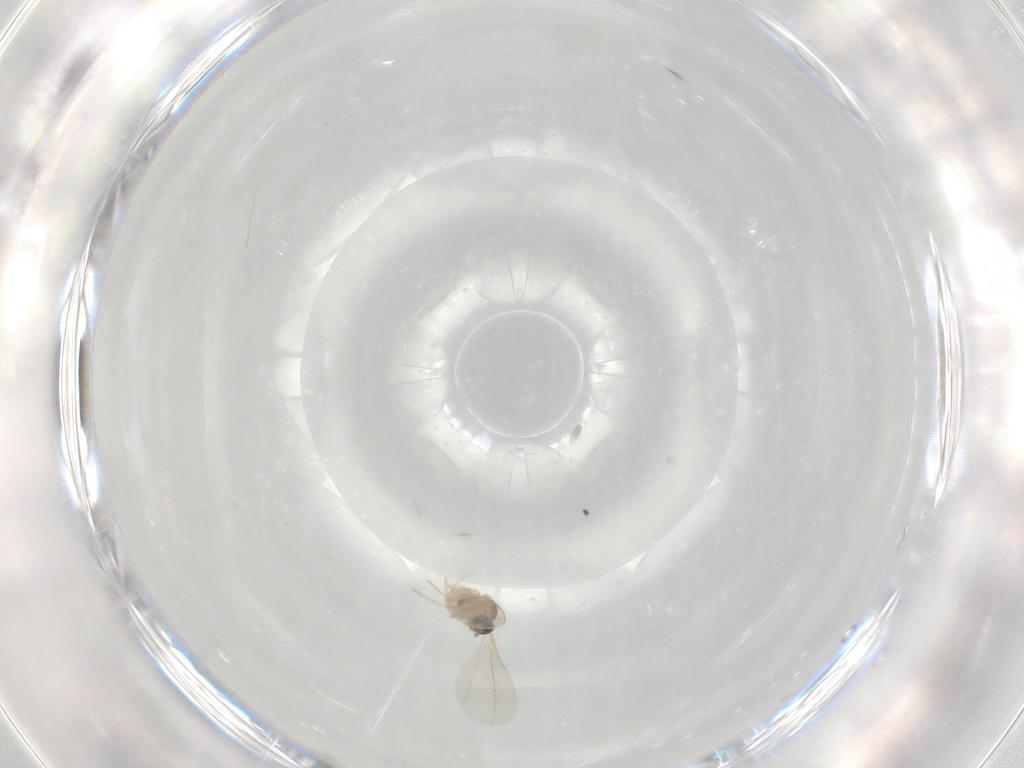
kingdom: Animalia
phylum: Arthropoda
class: Insecta
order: Diptera
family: Cecidomyiidae
